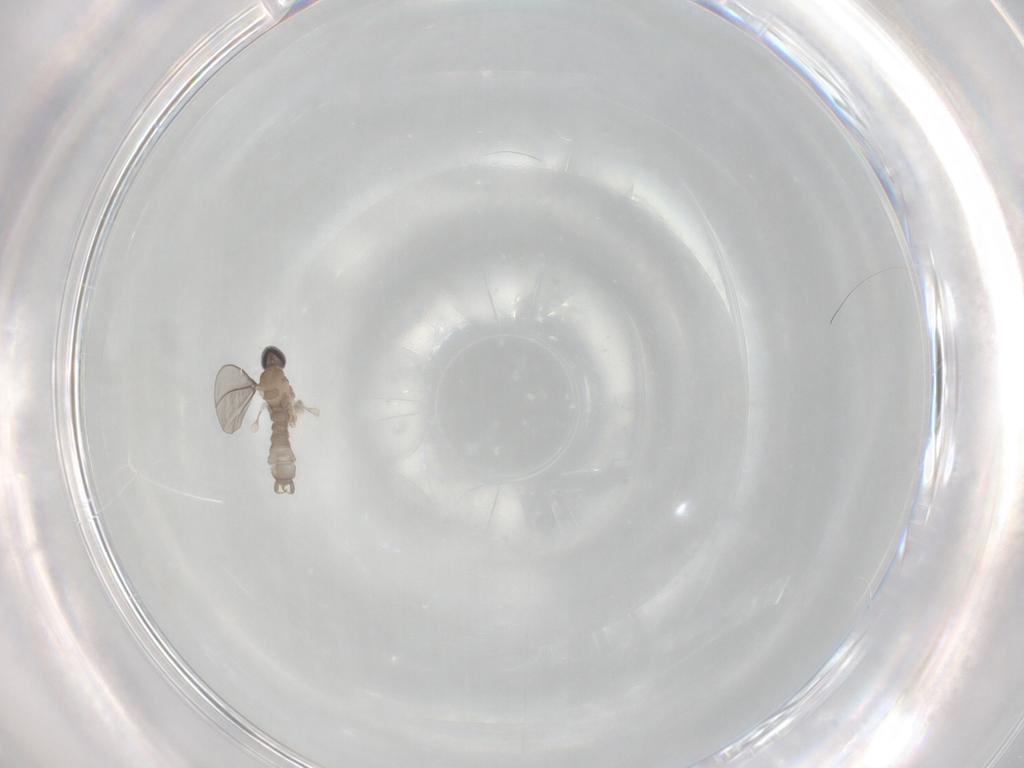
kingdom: Animalia
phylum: Arthropoda
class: Insecta
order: Diptera
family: Cecidomyiidae
